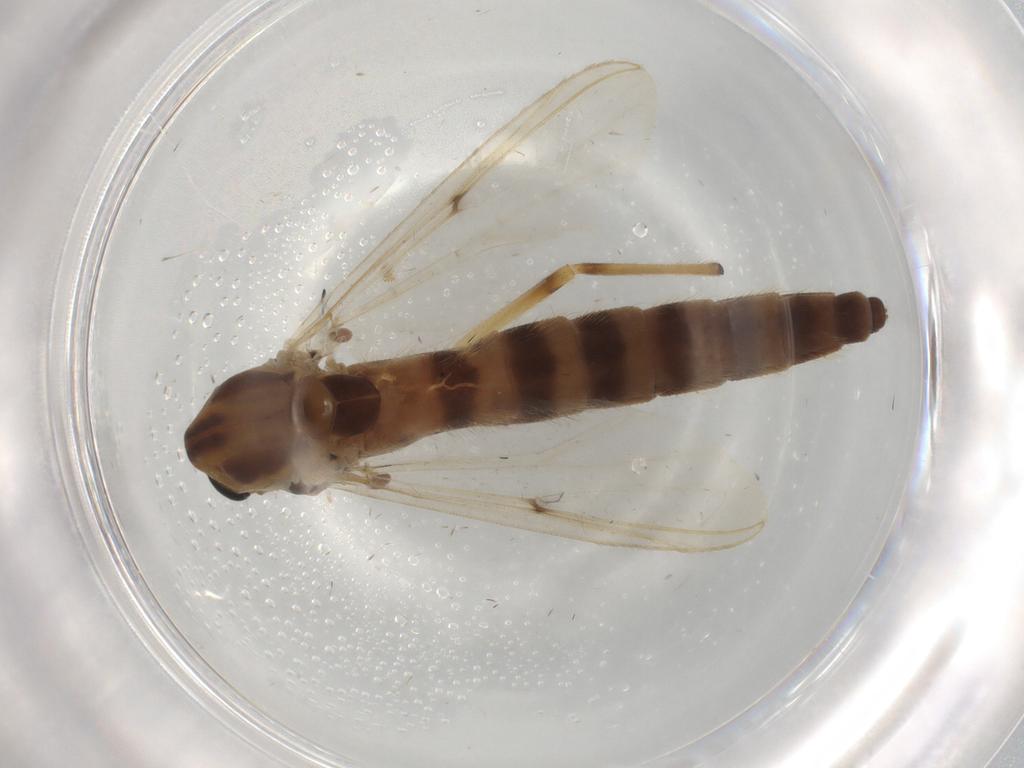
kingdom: Animalia
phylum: Arthropoda
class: Insecta
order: Diptera
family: Chironomidae
